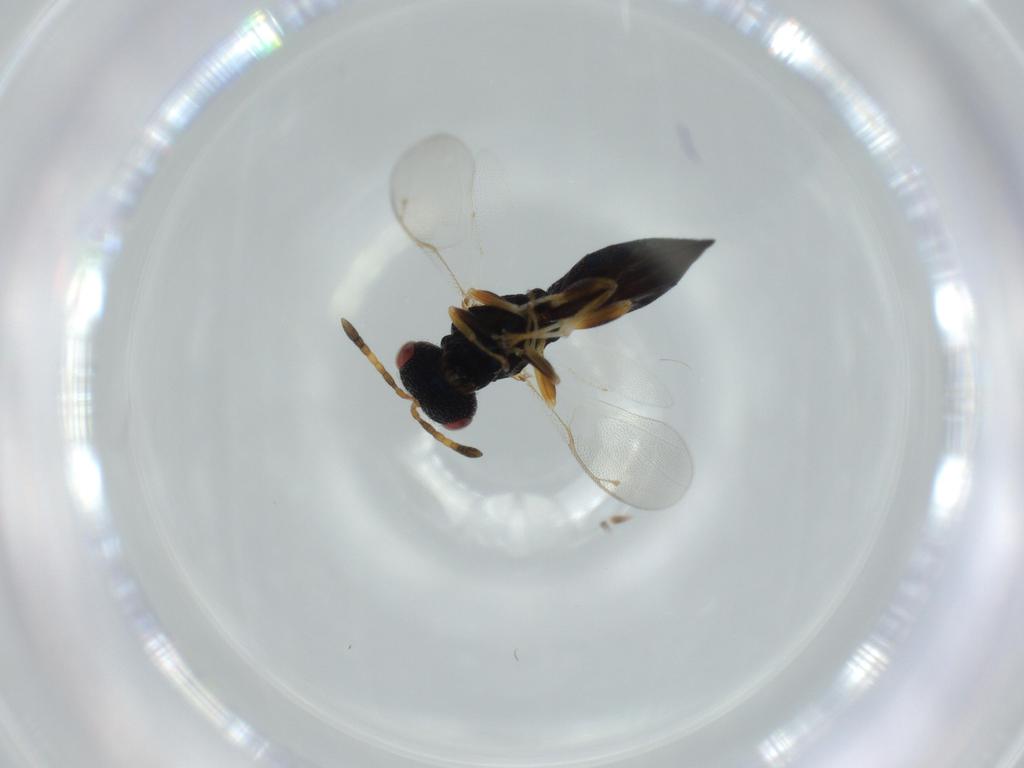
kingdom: Animalia
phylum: Arthropoda
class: Insecta
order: Hymenoptera
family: Pteromalidae
